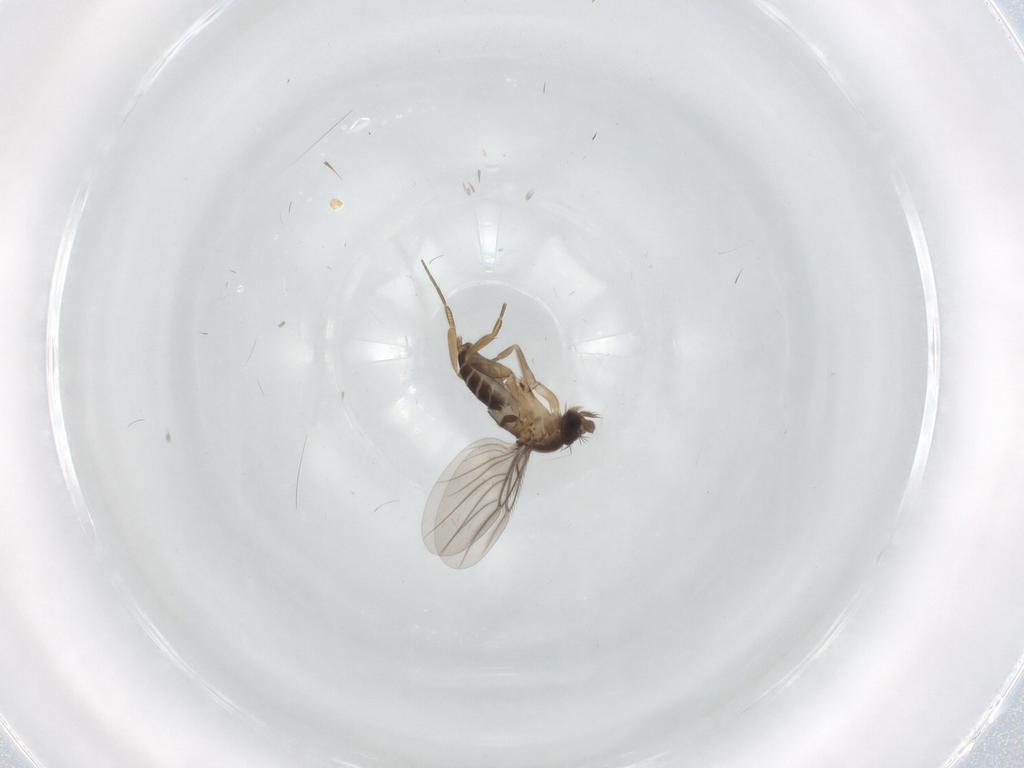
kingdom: Animalia
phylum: Arthropoda
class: Insecta
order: Diptera
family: Phoridae
